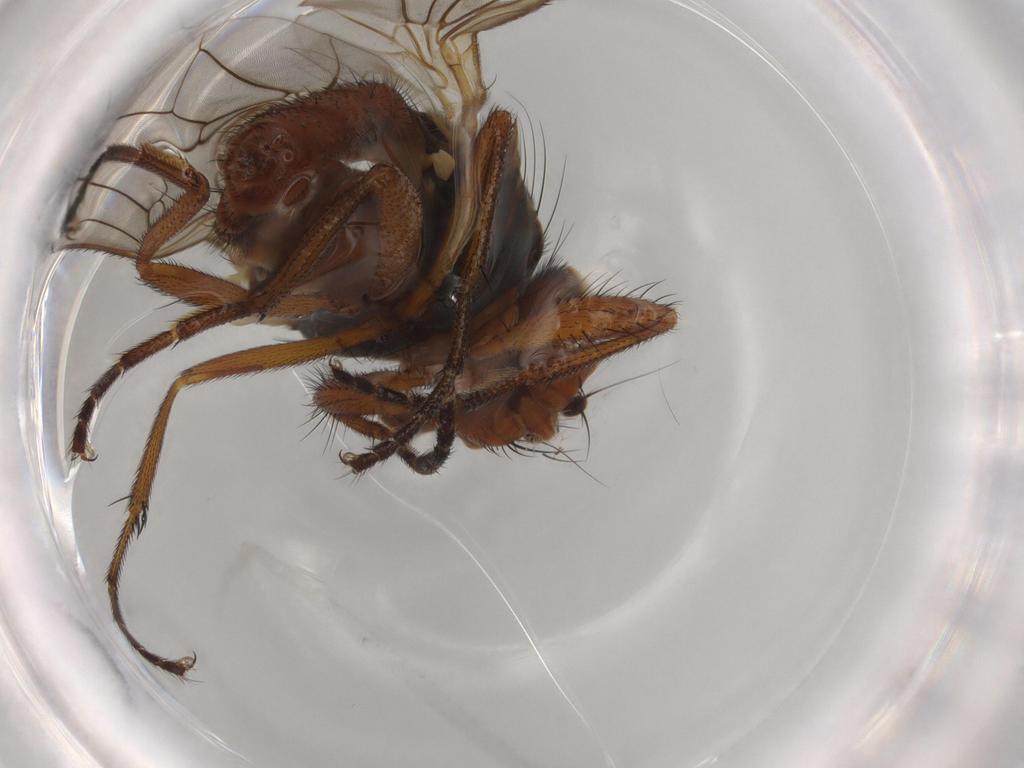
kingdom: Animalia
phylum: Arthropoda
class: Insecta
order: Diptera
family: Heleomyzidae
